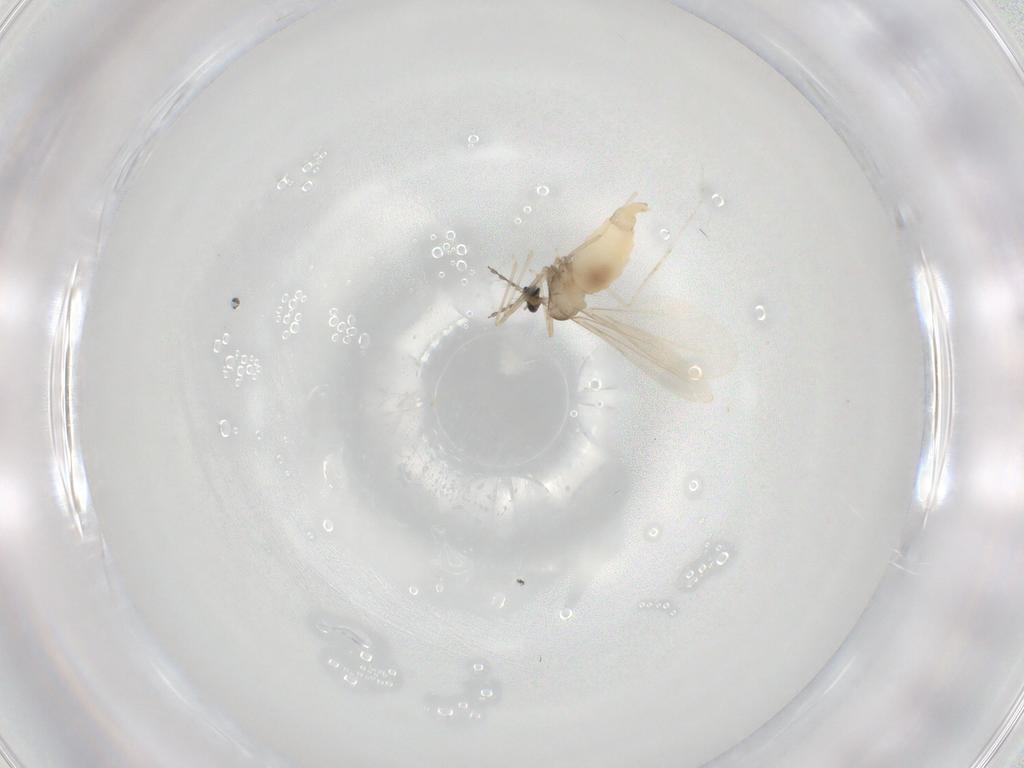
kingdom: Animalia
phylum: Arthropoda
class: Insecta
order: Diptera
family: Cecidomyiidae
